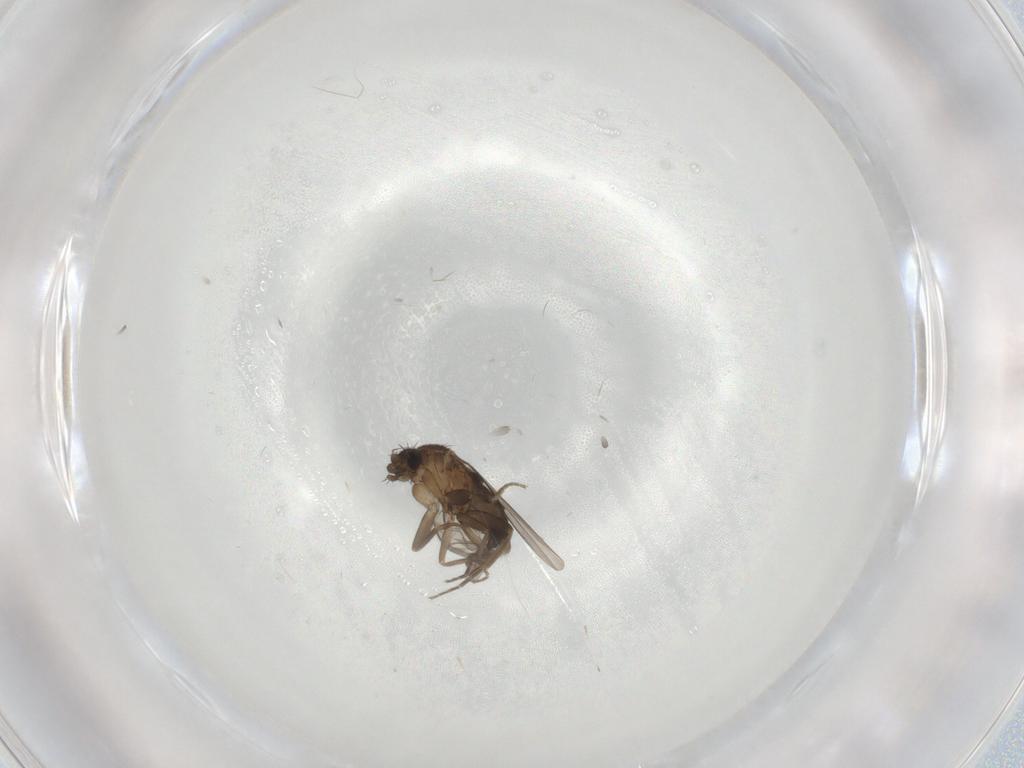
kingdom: Animalia
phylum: Arthropoda
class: Insecta
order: Diptera
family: Phoridae
